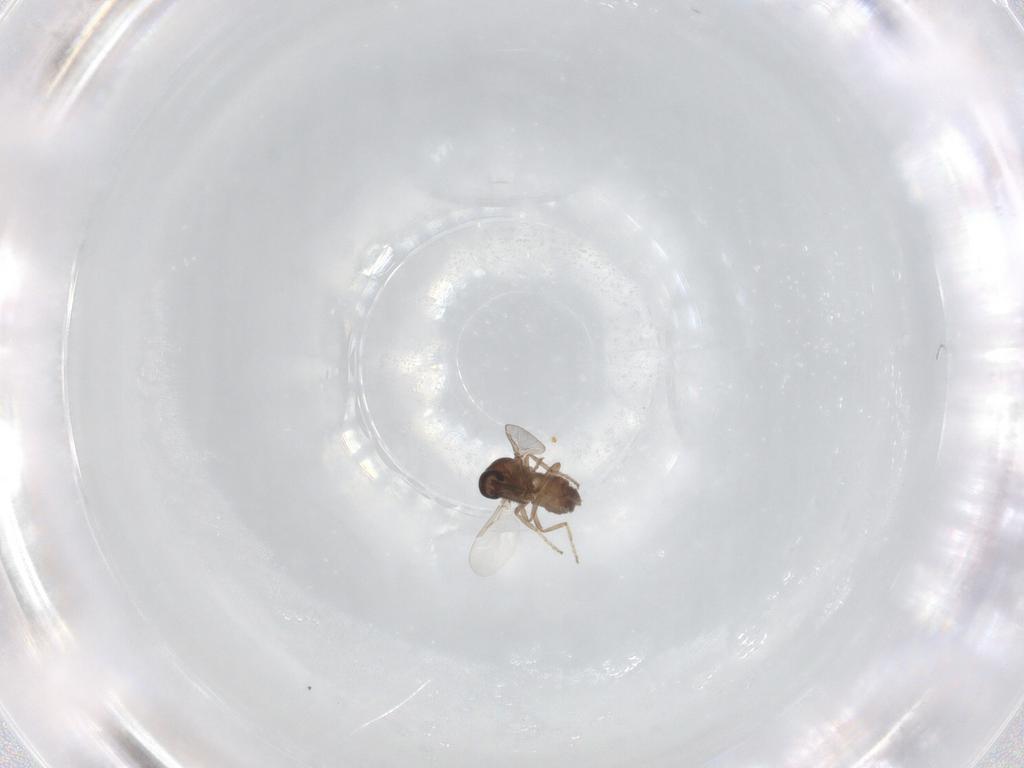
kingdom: Animalia
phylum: Arthropoda
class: Insecta
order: Diptera
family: Ceratopogonidae
